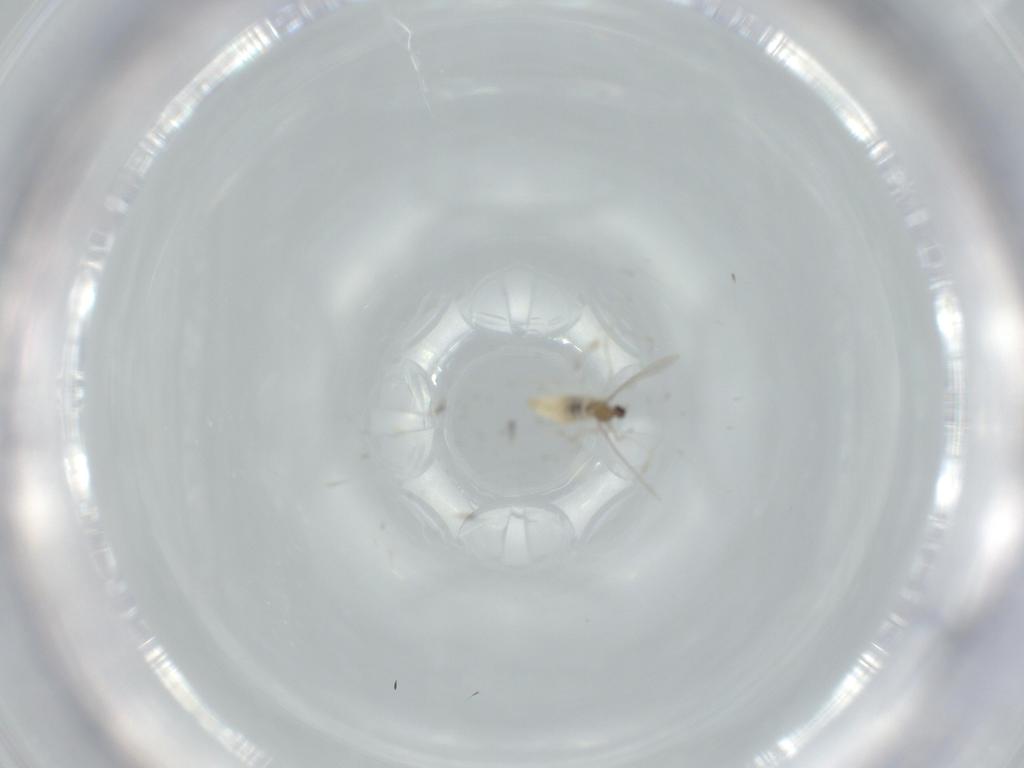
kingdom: Animalia
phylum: Arthropoda
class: Insecta
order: Diptera
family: Cecidomyiidae
